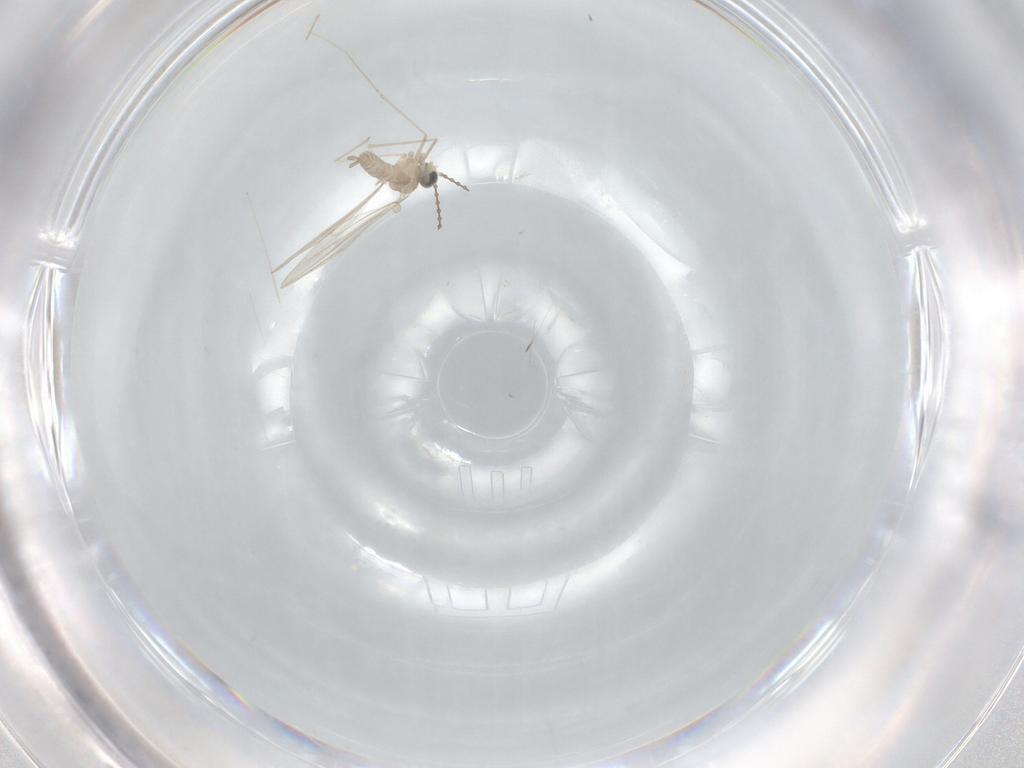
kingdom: Animalia
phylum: Arthropoda
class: Insecta
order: Diptera
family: Cecidomyiidae
